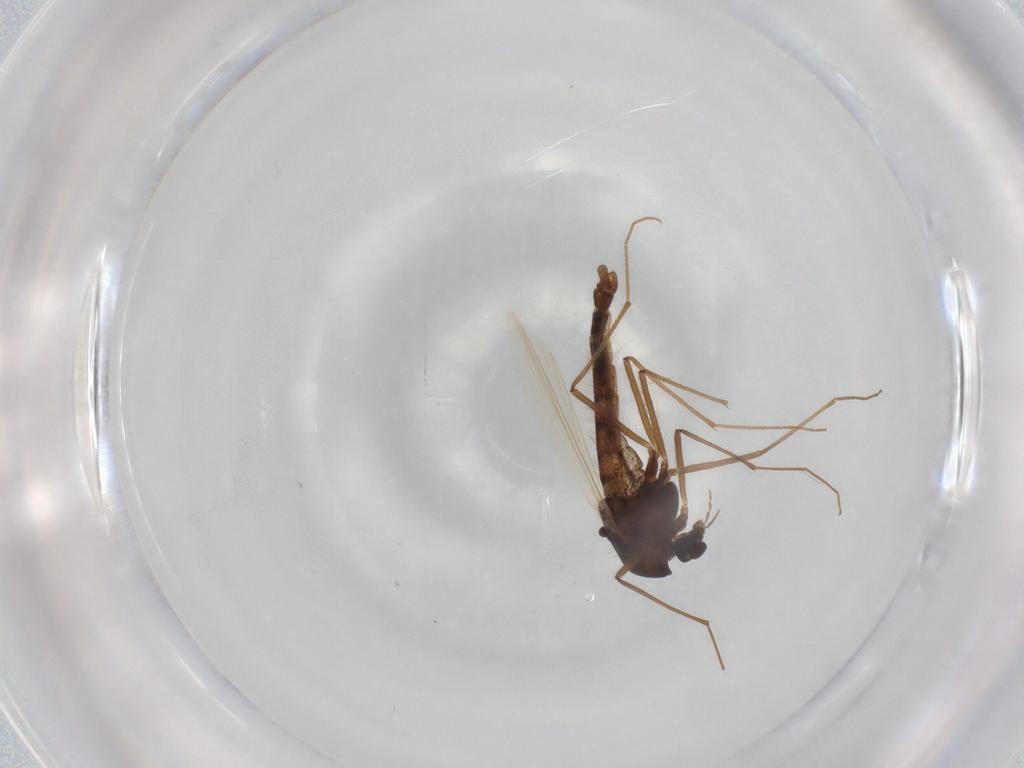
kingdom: Animalia
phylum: Arthropoda
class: Insecta
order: Diptera
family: Chironomidae
